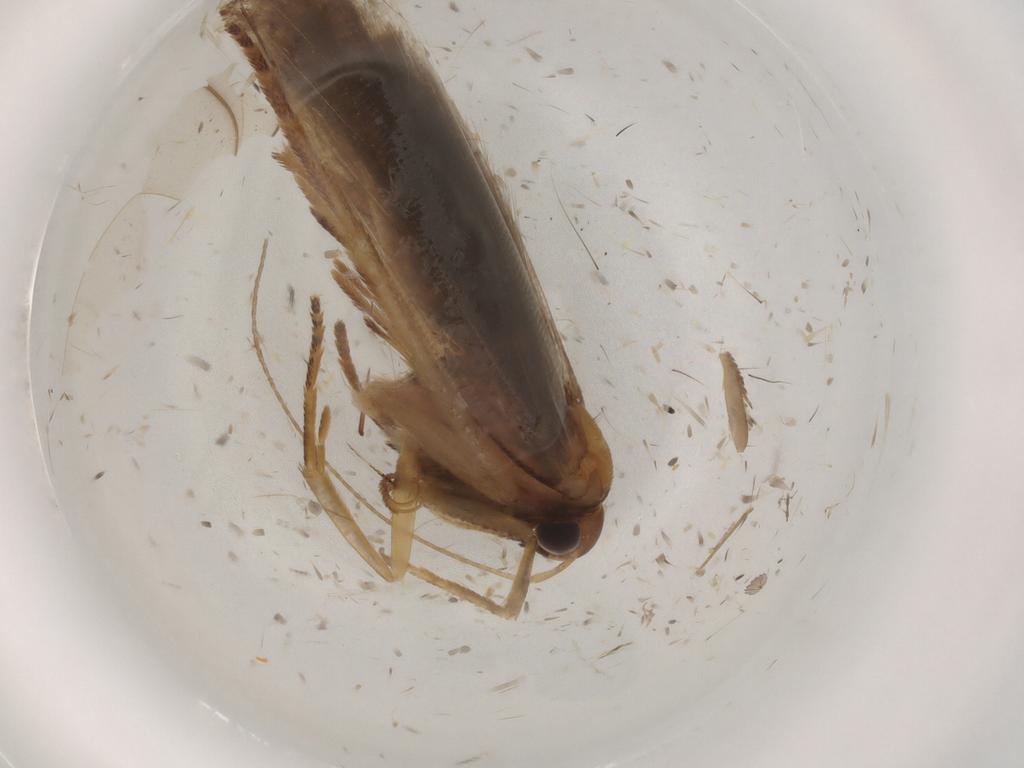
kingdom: Animalia
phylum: Arthropoda
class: Insecta
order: Lepidoptera
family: Gelechiidae
